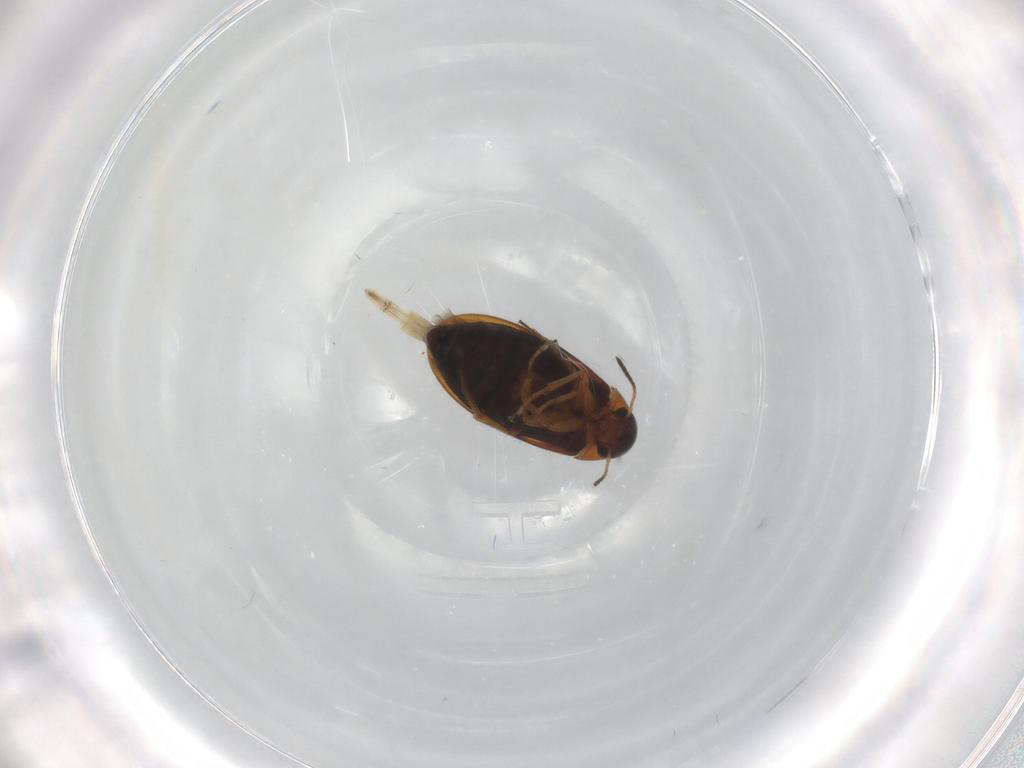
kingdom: Animalia
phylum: Arthropoda
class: Insecta
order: Coleoptera
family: Scraptiidae
